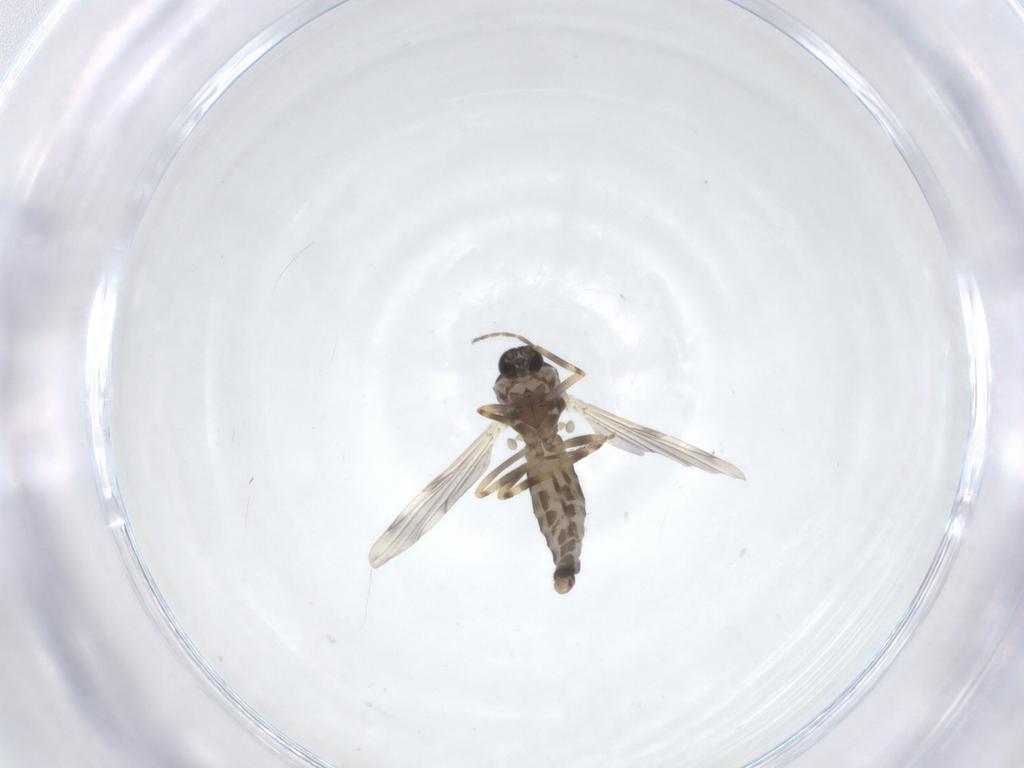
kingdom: Animalia
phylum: Arthropoda
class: Insecta
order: Diptera
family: Ceratopogonidae
